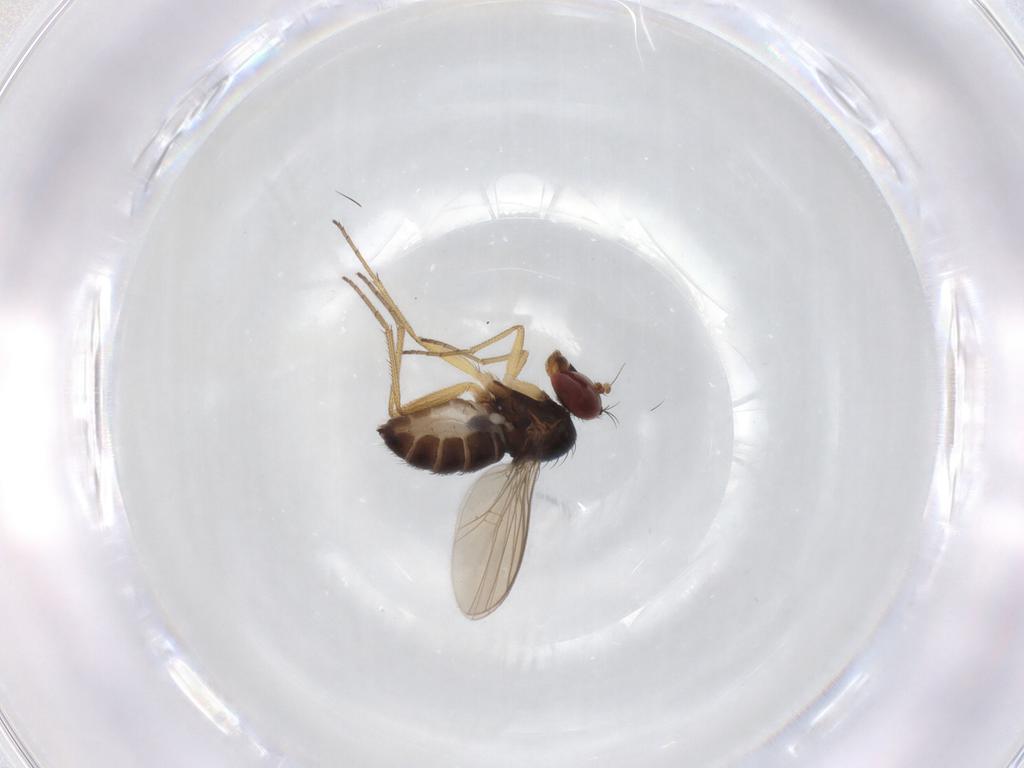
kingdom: Animalia
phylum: Arthropoda
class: Insecta
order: Diptera
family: Dolichopodidae
